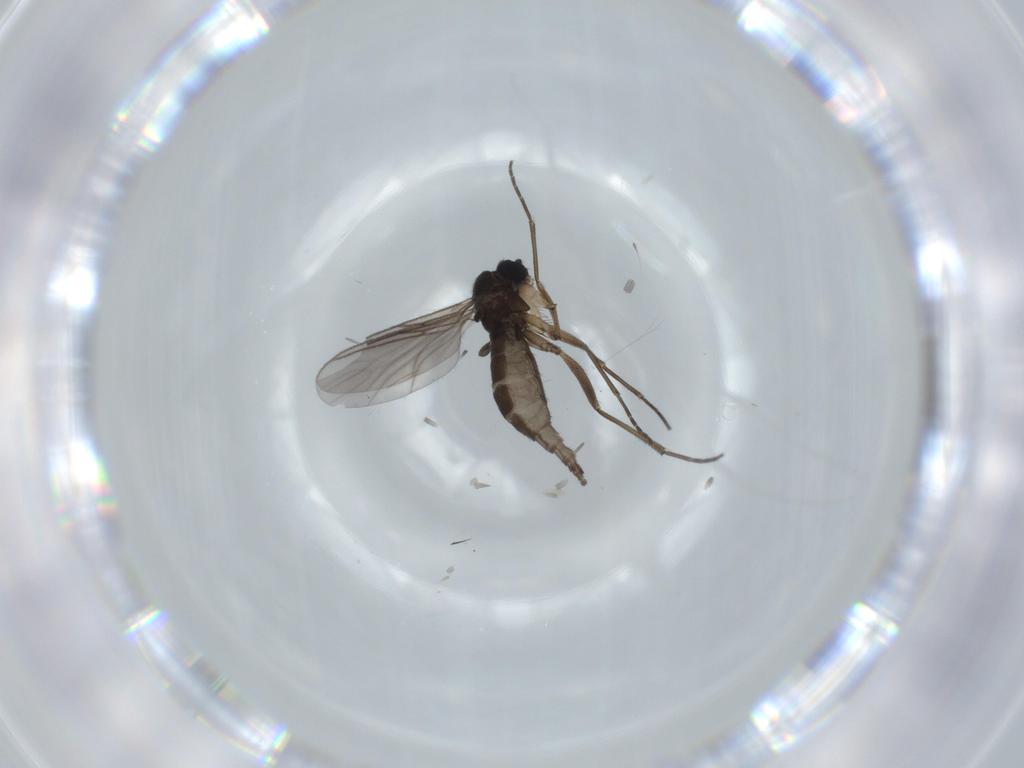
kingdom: Animalia
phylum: Arthropoda
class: Insecta
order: Diptera
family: Sciaridae
